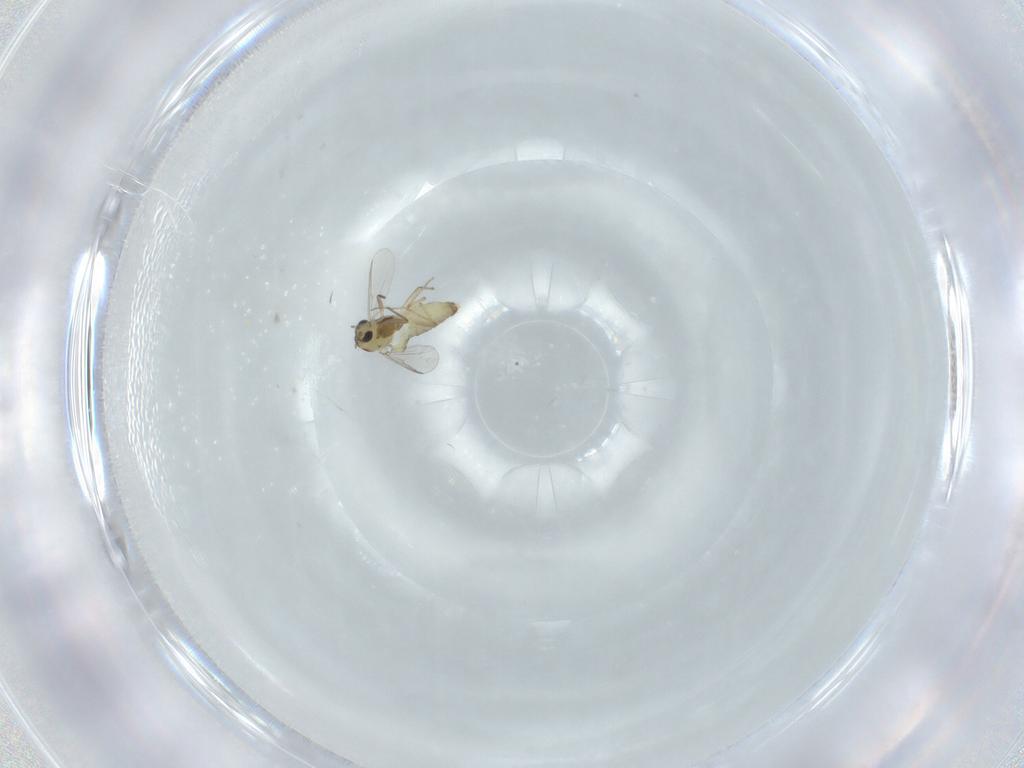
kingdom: Animalia
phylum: Arthropoda
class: Insecta
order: Diptera
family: Chironomidae
